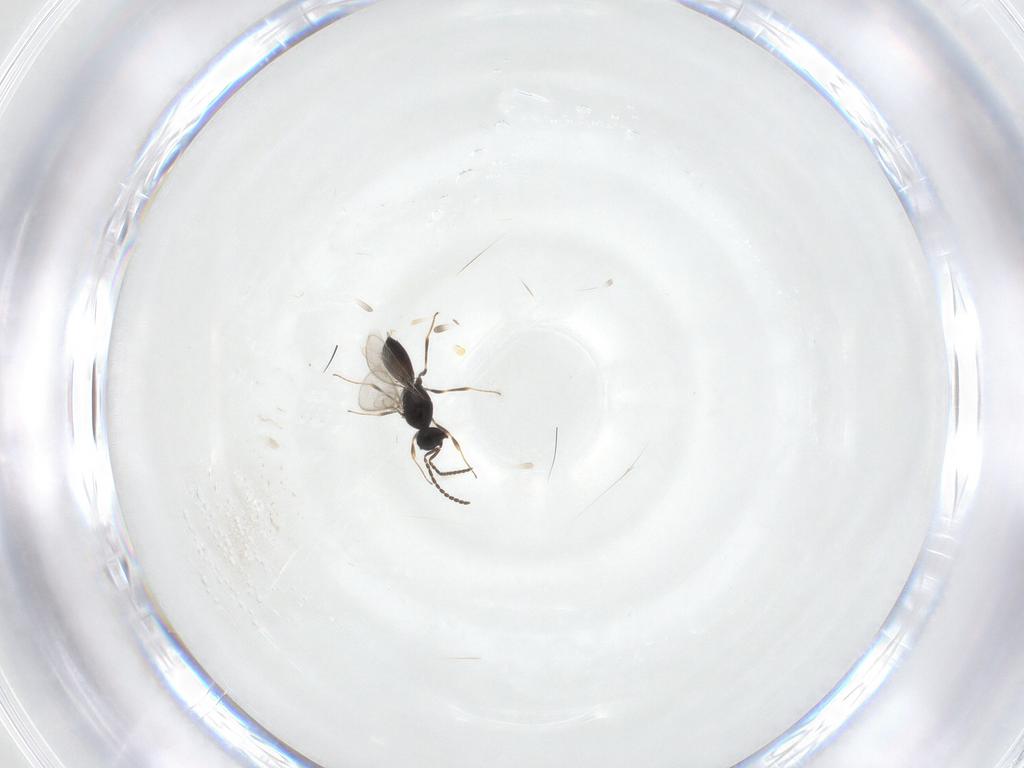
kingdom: Animalia
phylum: Arthropoda
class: Insecta
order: Hymenoptera
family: Scelionidae
